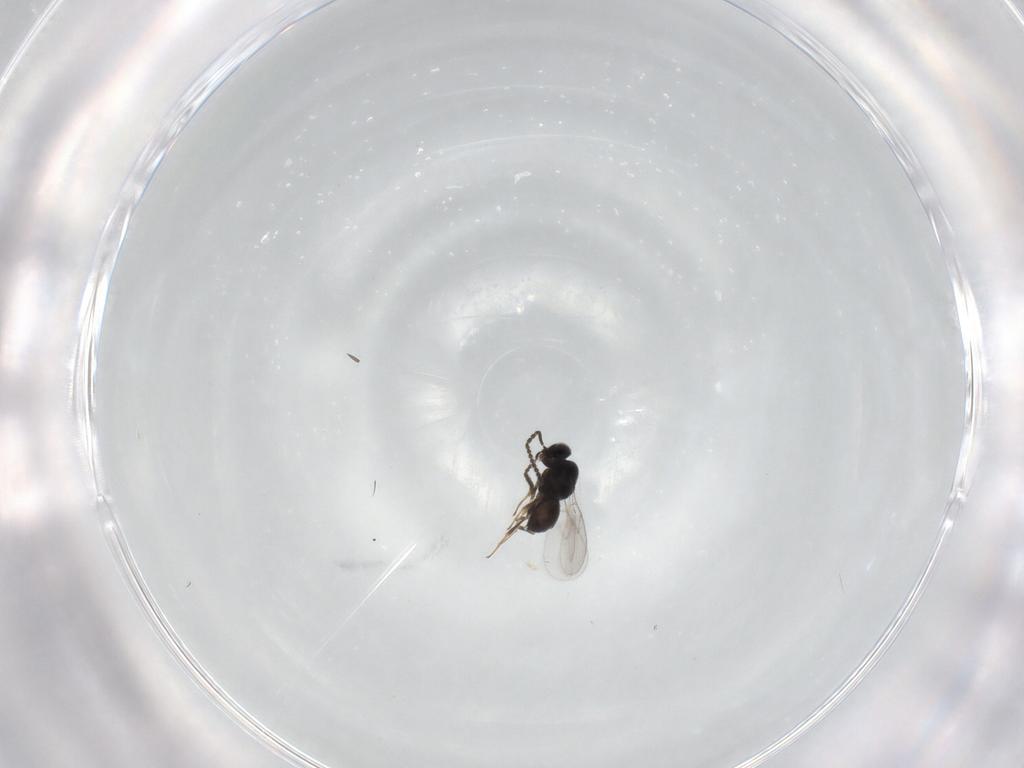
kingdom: Animalia
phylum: Arthropoda
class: Insecta
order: Hymenoptera
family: Scelionidae
